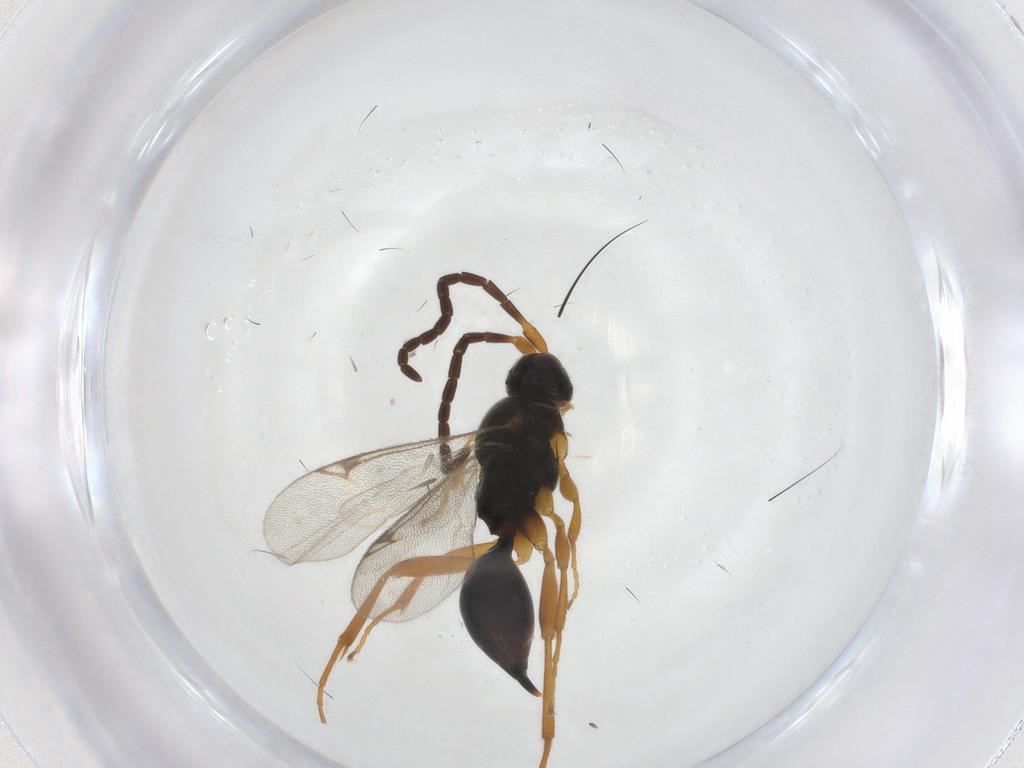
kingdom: Animalia
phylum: Arthropoda
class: Insecta
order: Hymenoptera
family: Proctotrupidae
